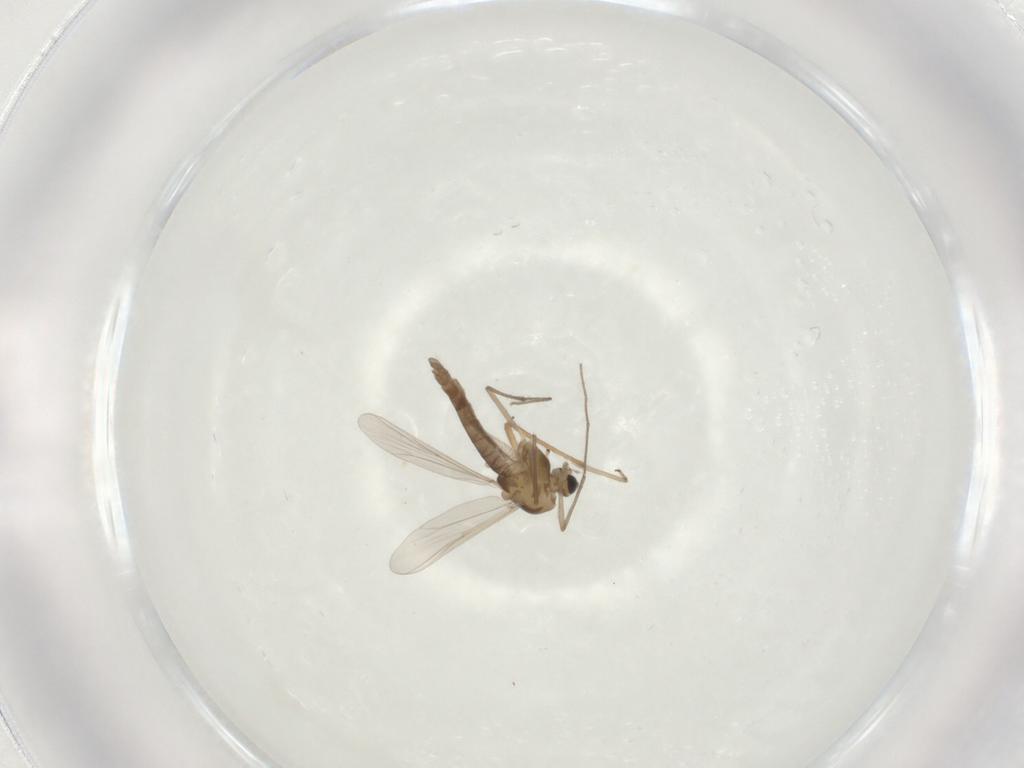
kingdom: Animalia
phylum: Arthropoda
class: Insecta
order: Diptera
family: Chironomidae
